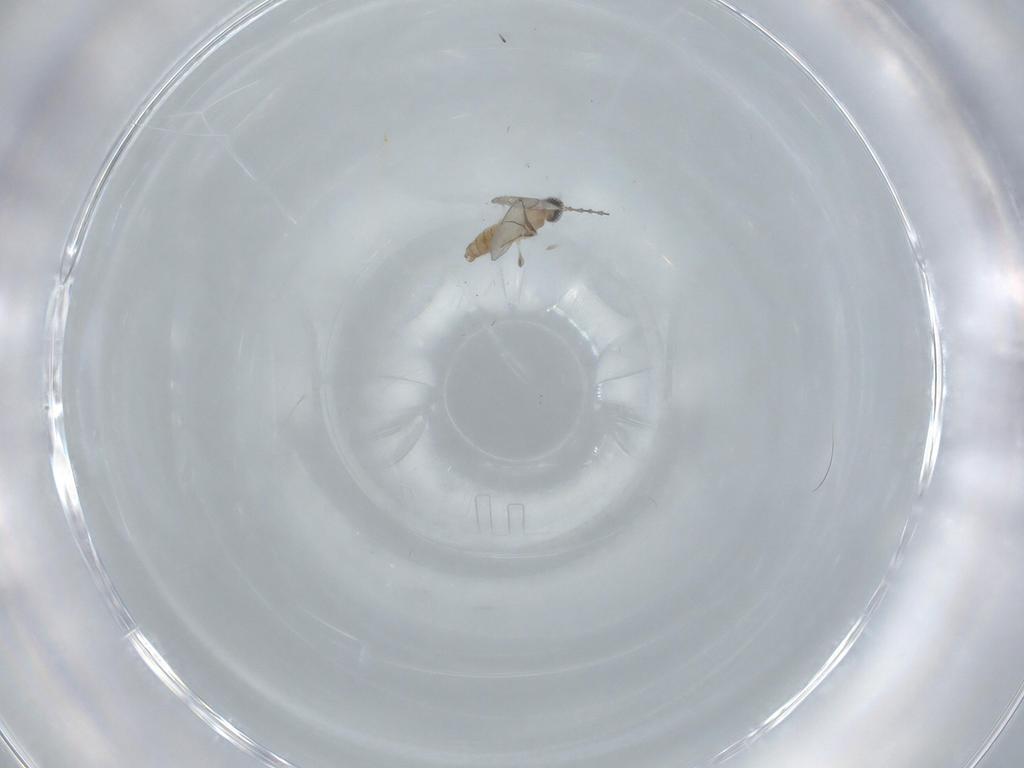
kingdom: Animalia
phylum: Arthropoda
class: Insecta
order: Diptera
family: Cecidomyiidae
